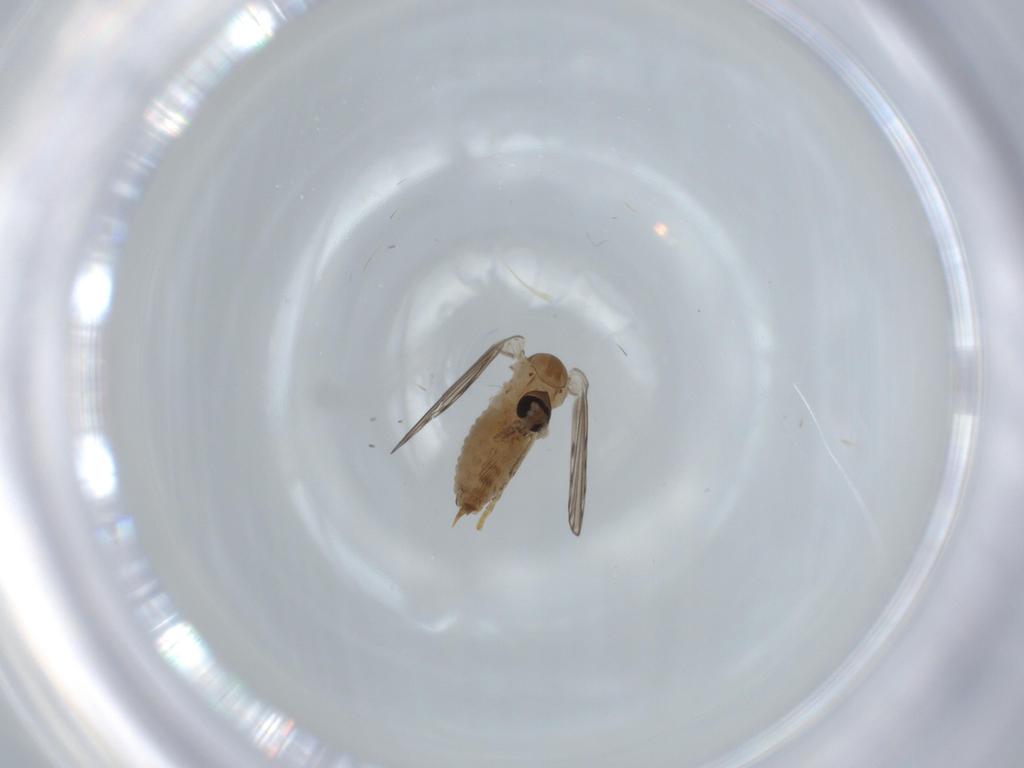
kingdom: Animalia
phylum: Arthropoda
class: Insecta
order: Diptera
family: Psychodidae
